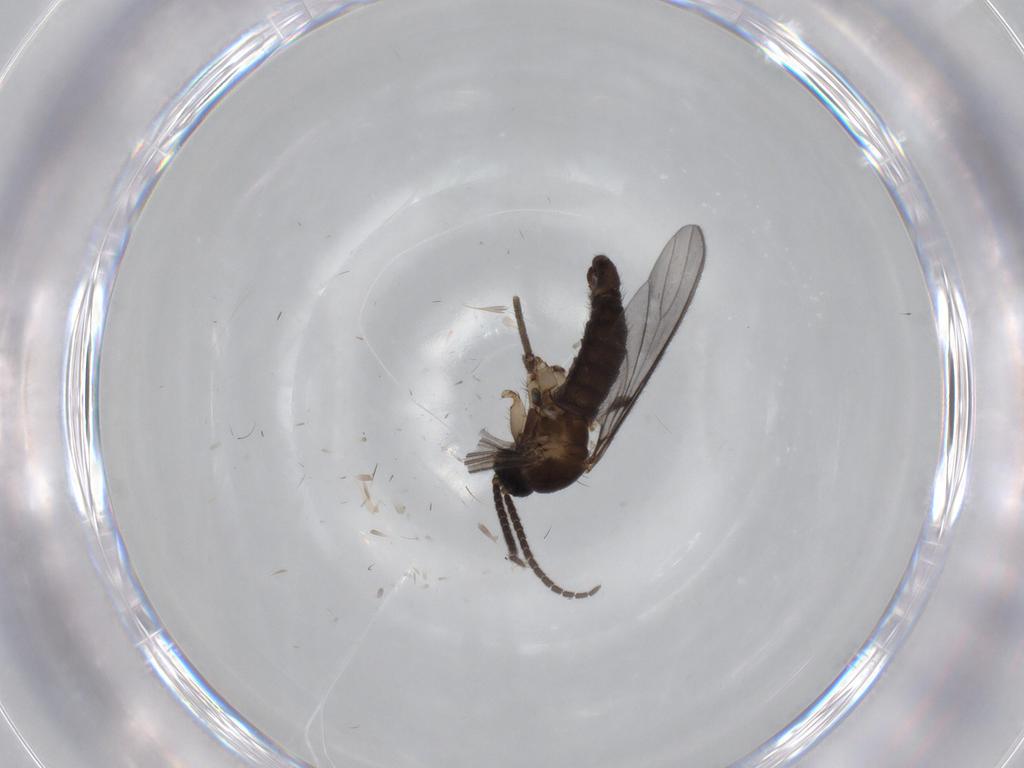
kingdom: Animalia
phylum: Arthropoda
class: Insecta
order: Diptera
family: Sciaridae
